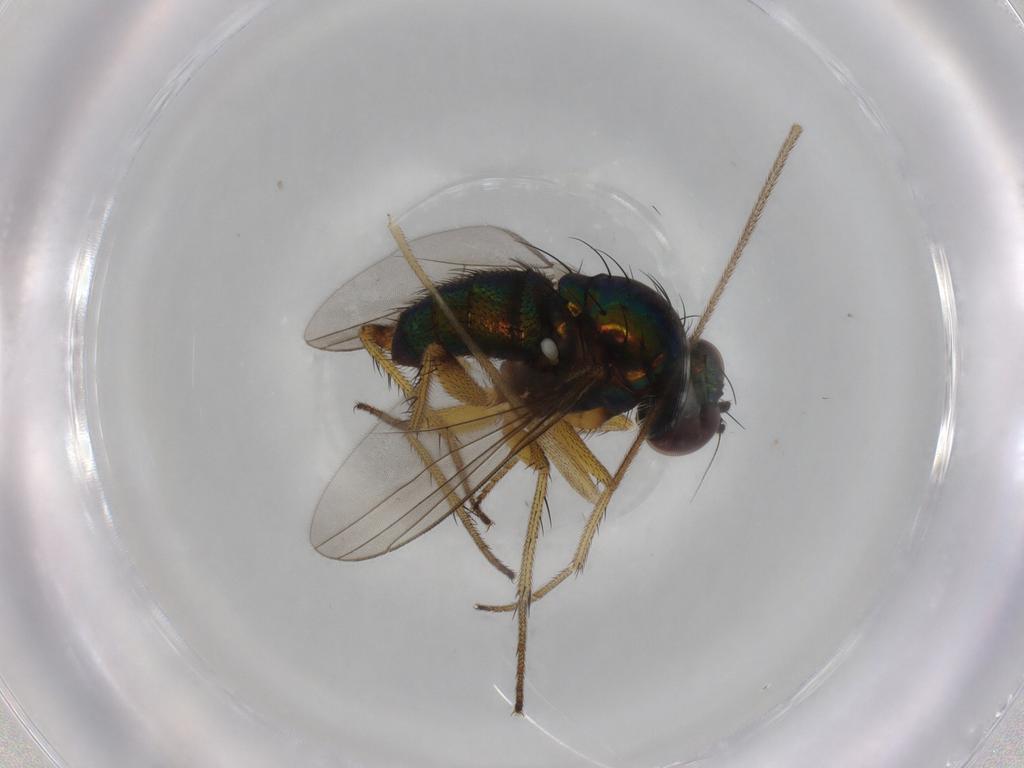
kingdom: Animalia
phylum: Arthropoda
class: Insecta
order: Diptera
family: Dolichopodidae
